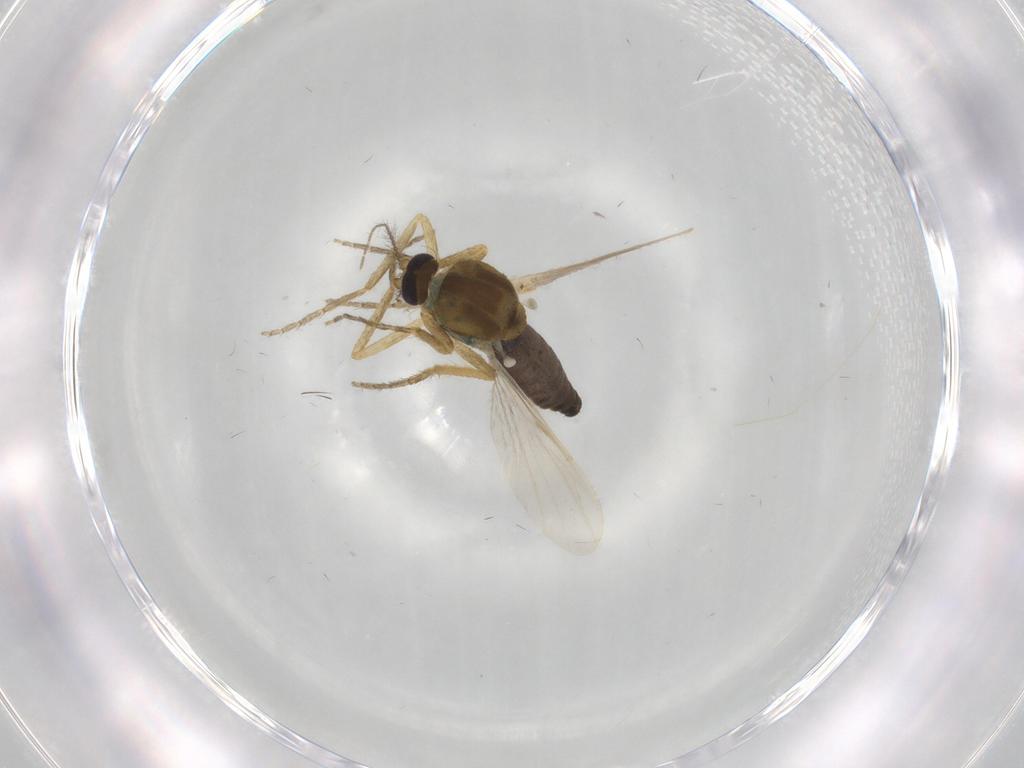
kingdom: Animalia
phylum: Arthropoda
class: Insecta
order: Diptera
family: Ceratopogonidae
